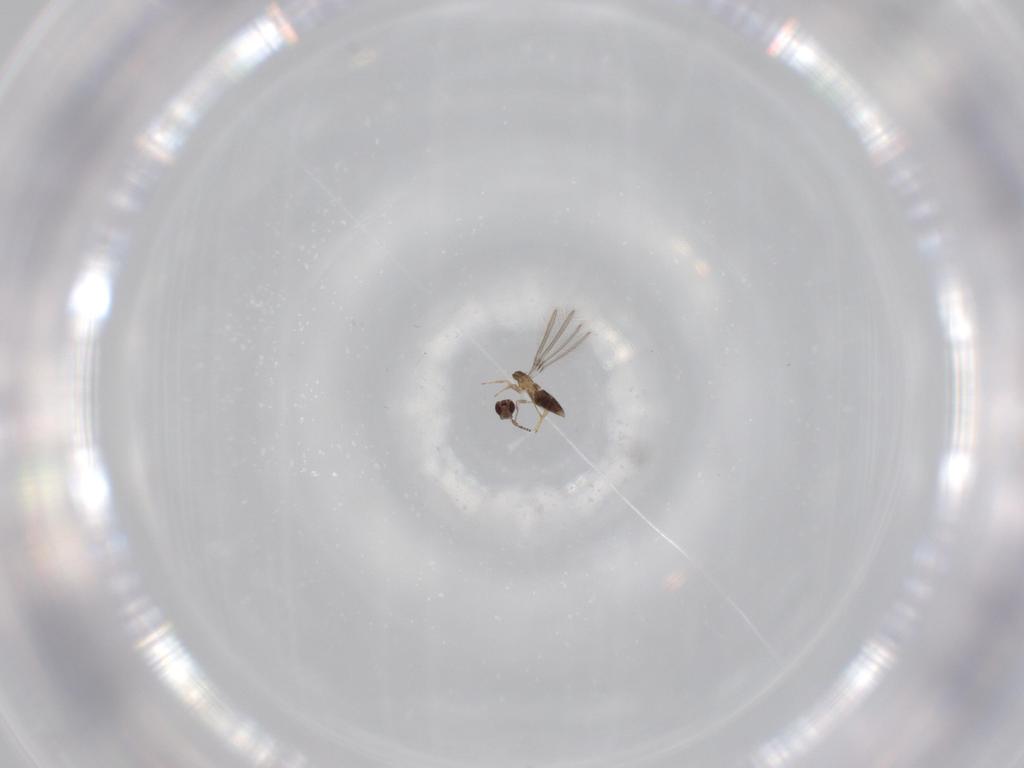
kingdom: Animalia
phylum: Arthropoda
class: Insecta
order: Hymenoptera
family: Mymaridae
